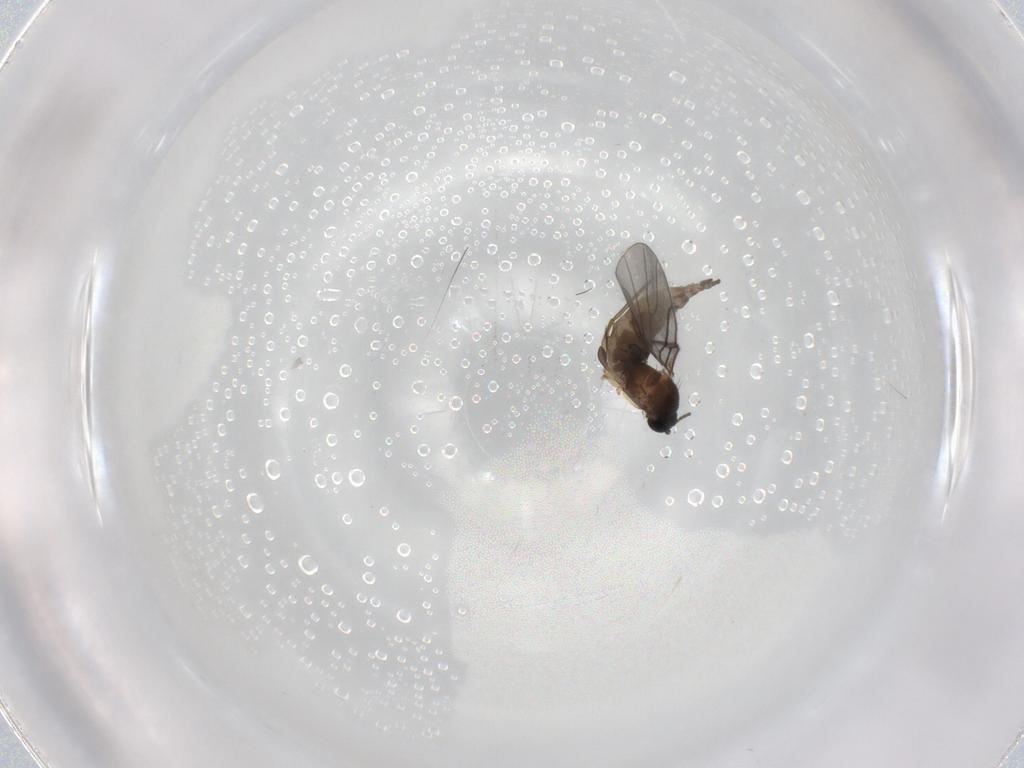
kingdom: Animalia
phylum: Arthropoda
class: Insecta
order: Diptera
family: Sciaridae
